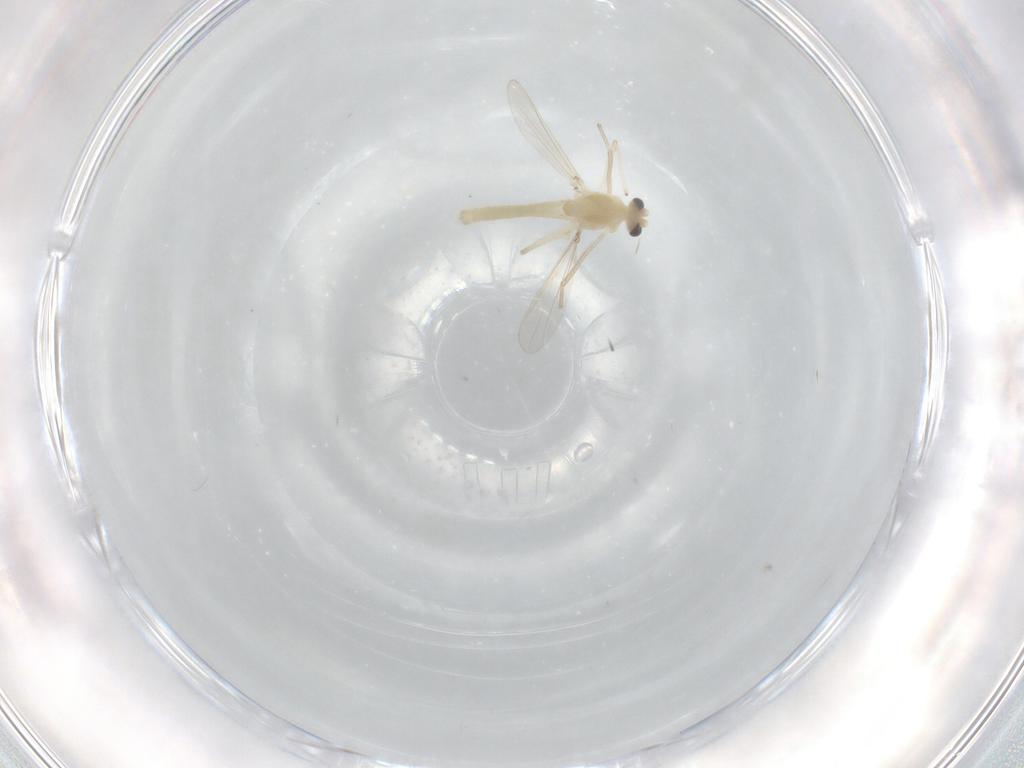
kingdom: Animalia
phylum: Arthropoda
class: Insecta
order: Diptera
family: Chironomidae
